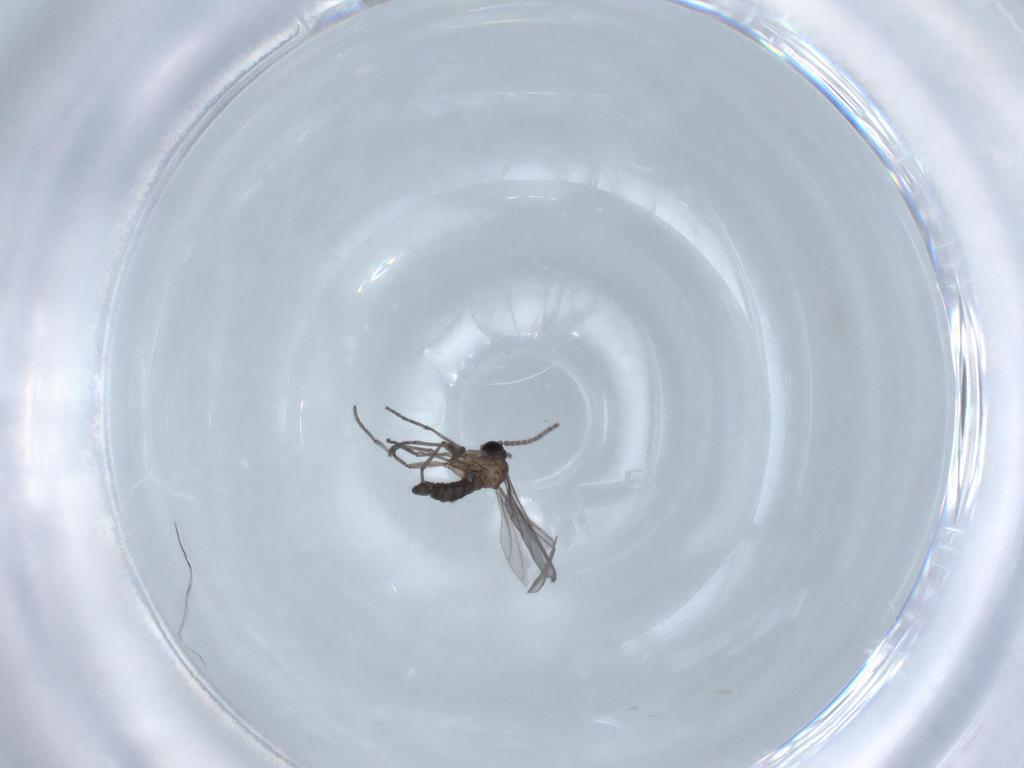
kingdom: Animalia
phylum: Arthropoda
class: Insecta
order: Diptera
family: Sciaridae
